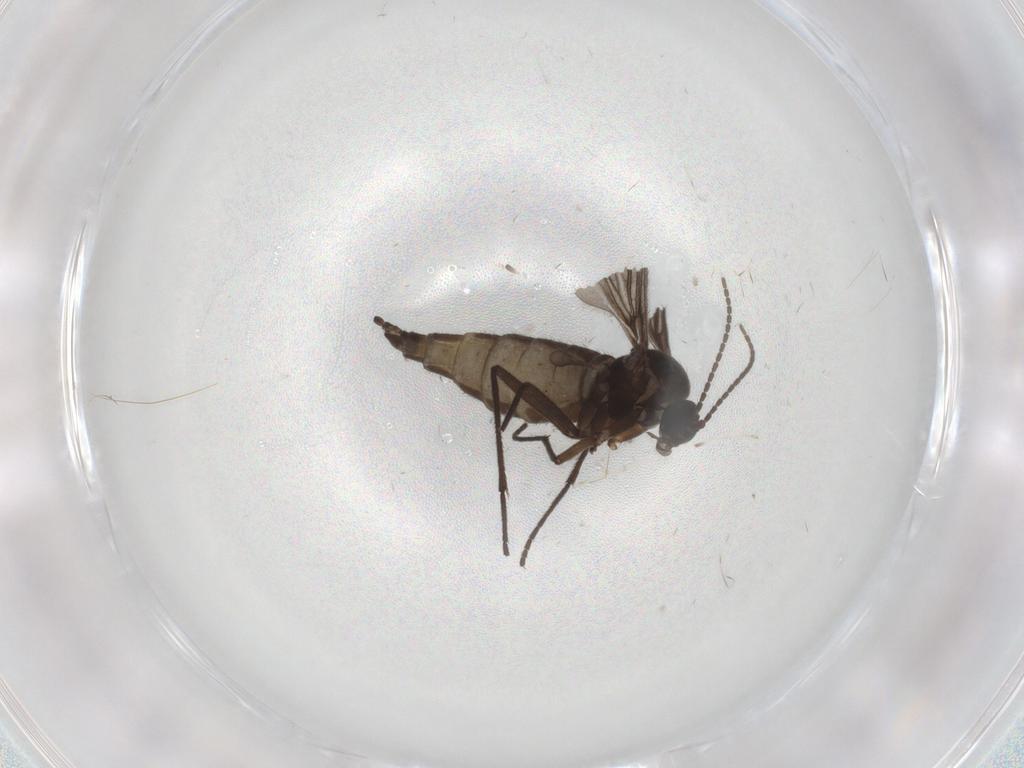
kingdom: Animalia
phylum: Arthropoda
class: Insecta
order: Diptera
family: Sciaridae
